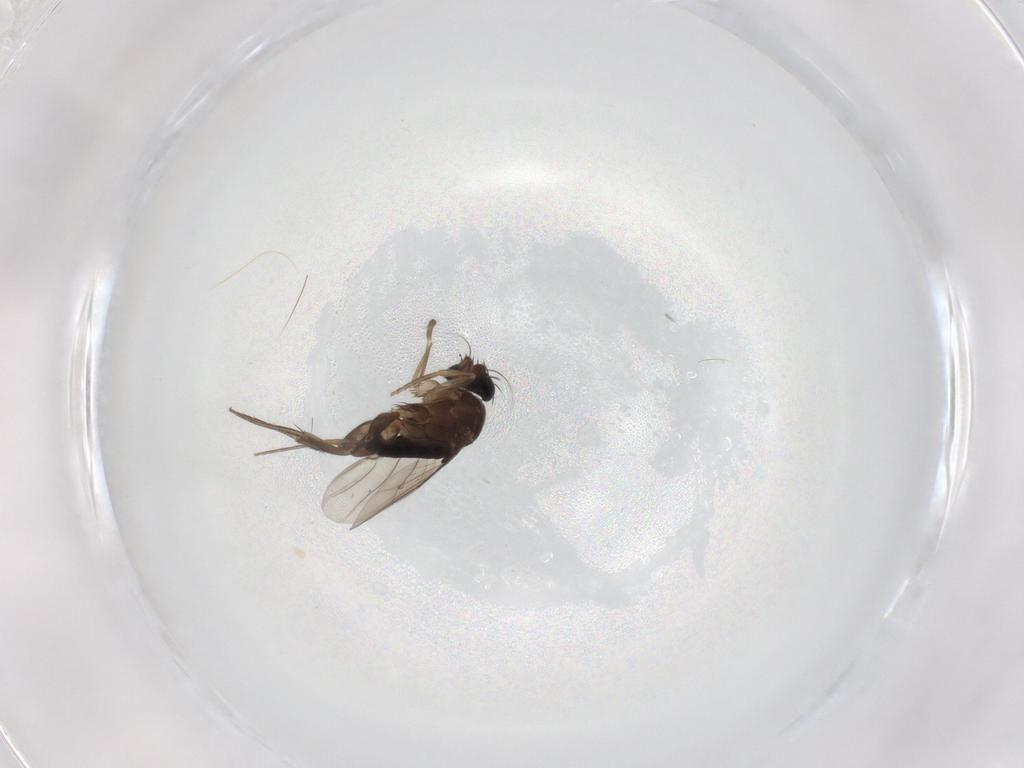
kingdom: Animalia
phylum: Arthropoda
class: Insecta
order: Diptera
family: Phoridae
